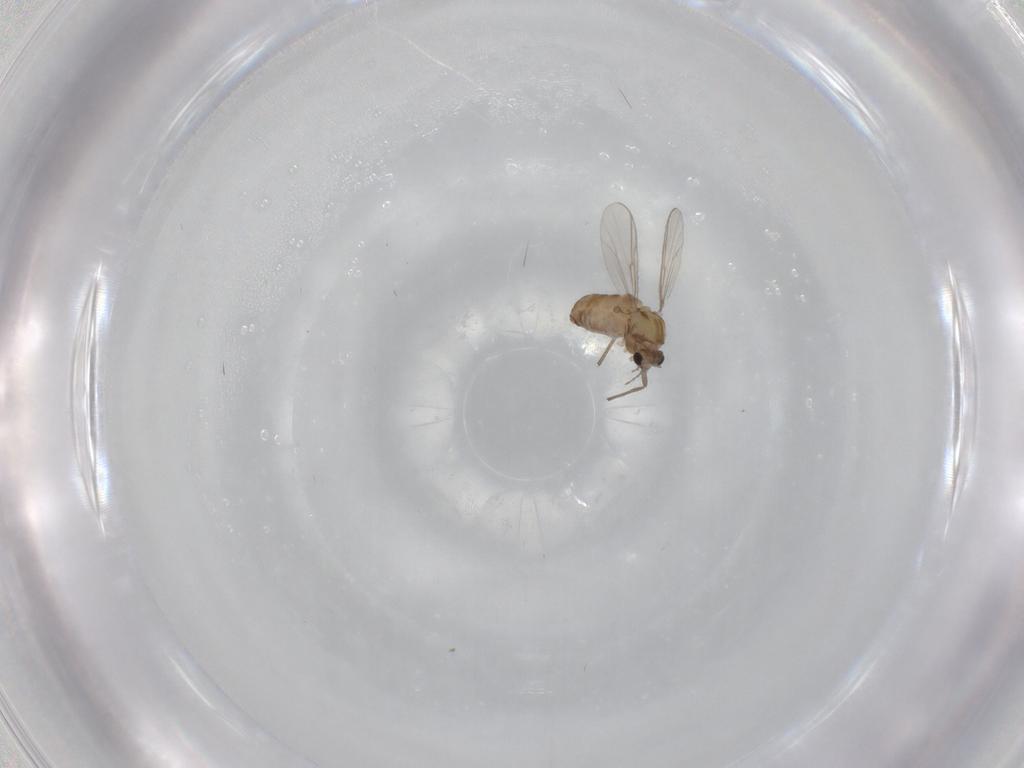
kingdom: Animalia
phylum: Arthropoda
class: Insecta
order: Diptera
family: Chironomidae
